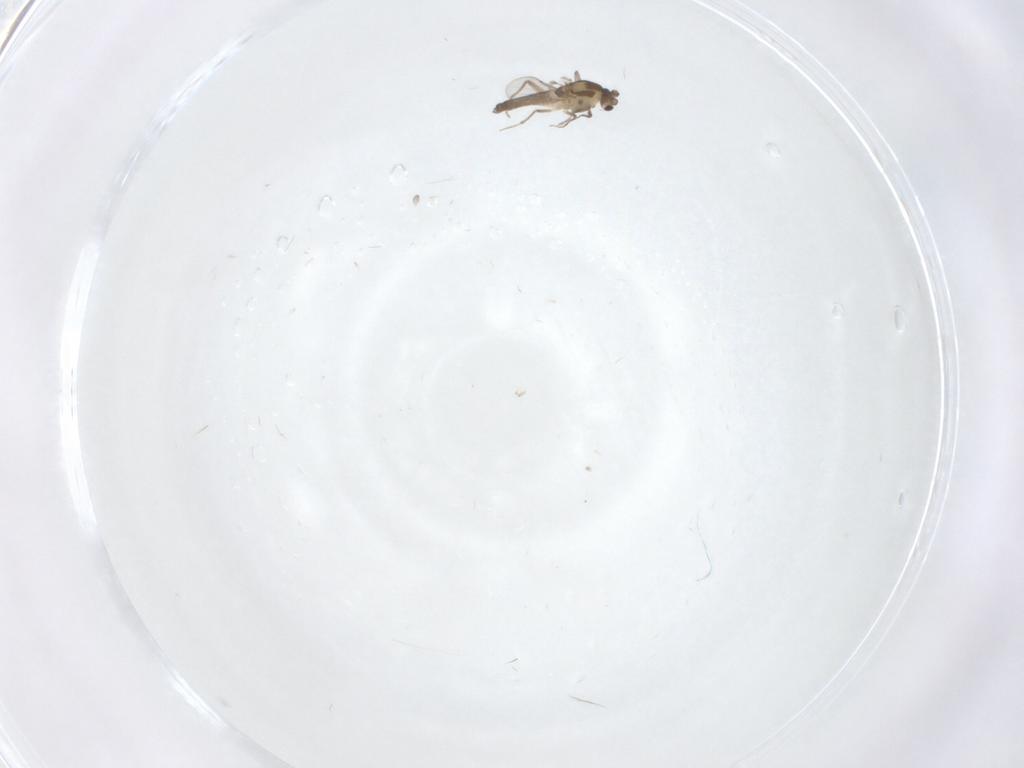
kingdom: Animalia
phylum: Arthropoda
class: Insecta
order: Diptera
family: Chironomidae
